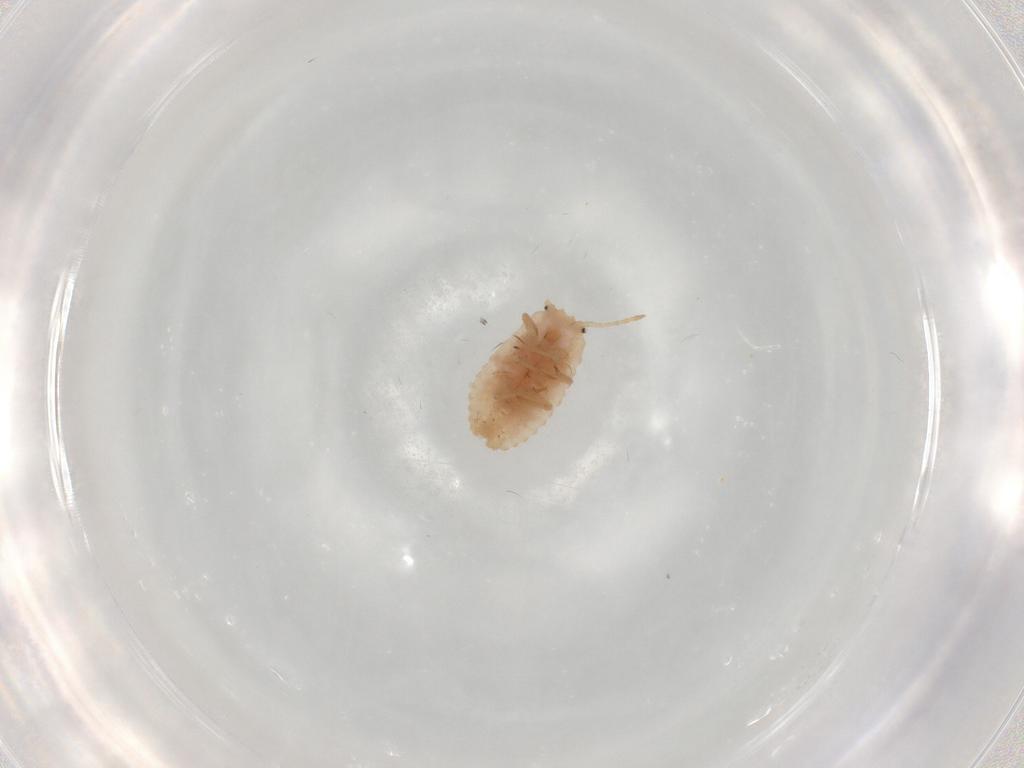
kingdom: Animalia
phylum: Arthropoda
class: Insecta
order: Hemiptera
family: Coccoidea_incertae_sedis
